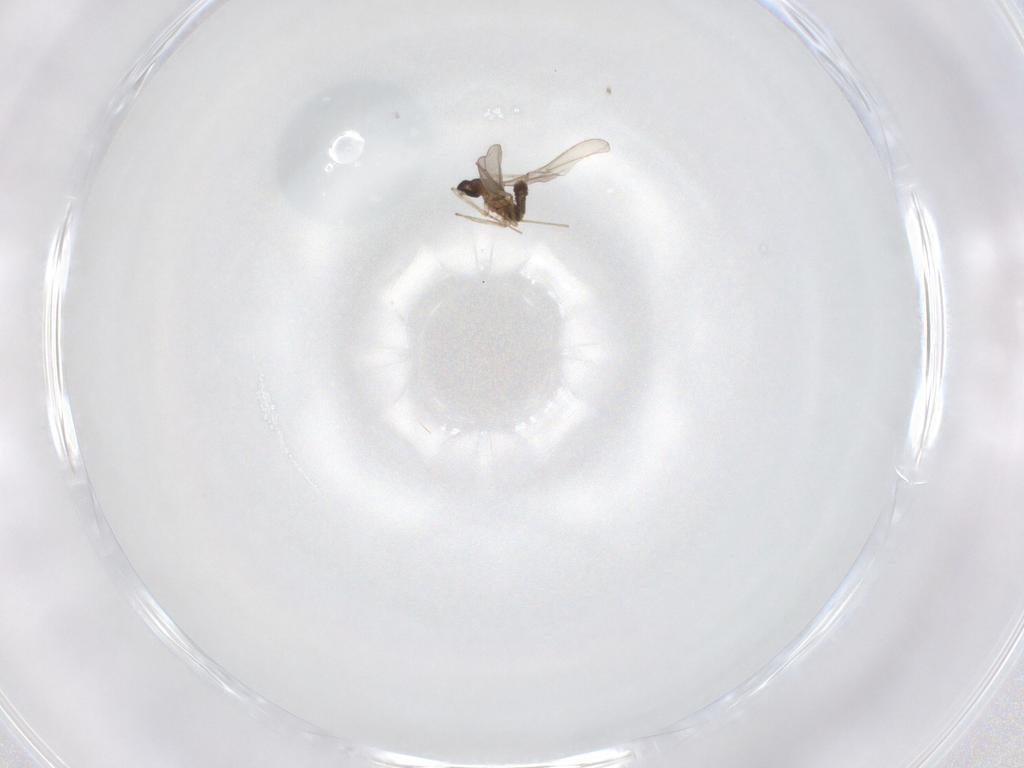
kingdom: Animalia
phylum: Arthropoda
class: Insecta
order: Diptera
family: Cecidomyiidae
